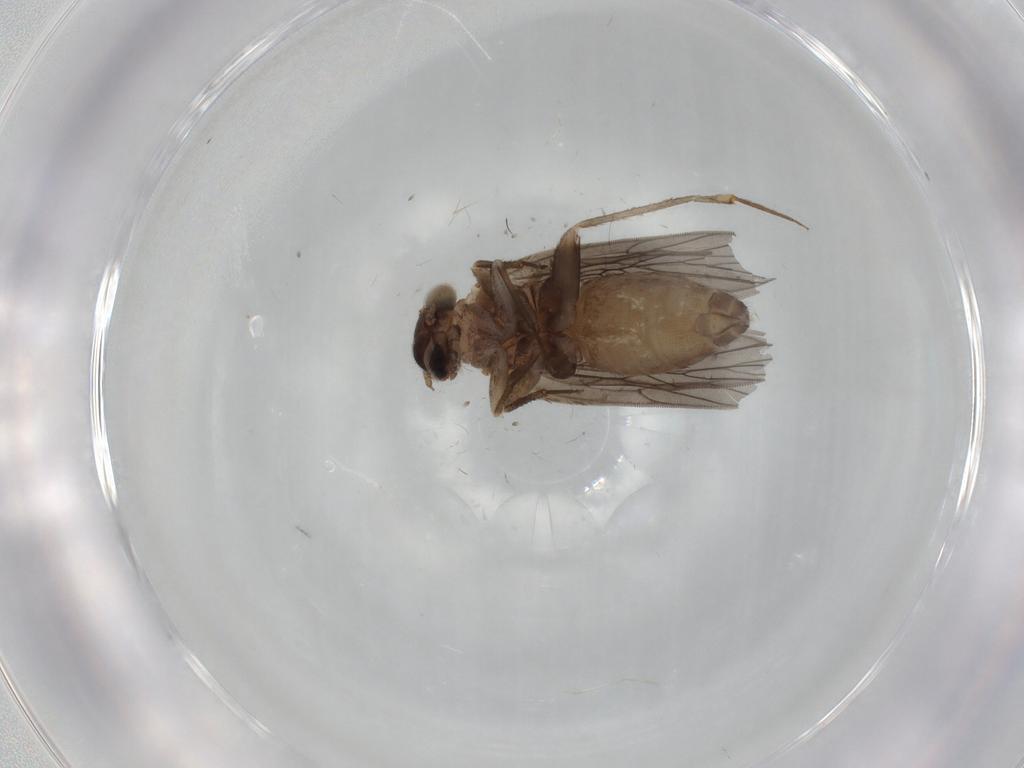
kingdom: Animalia
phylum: Arthropoda
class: Insecta
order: Psocodea
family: Lepidopsocidae
